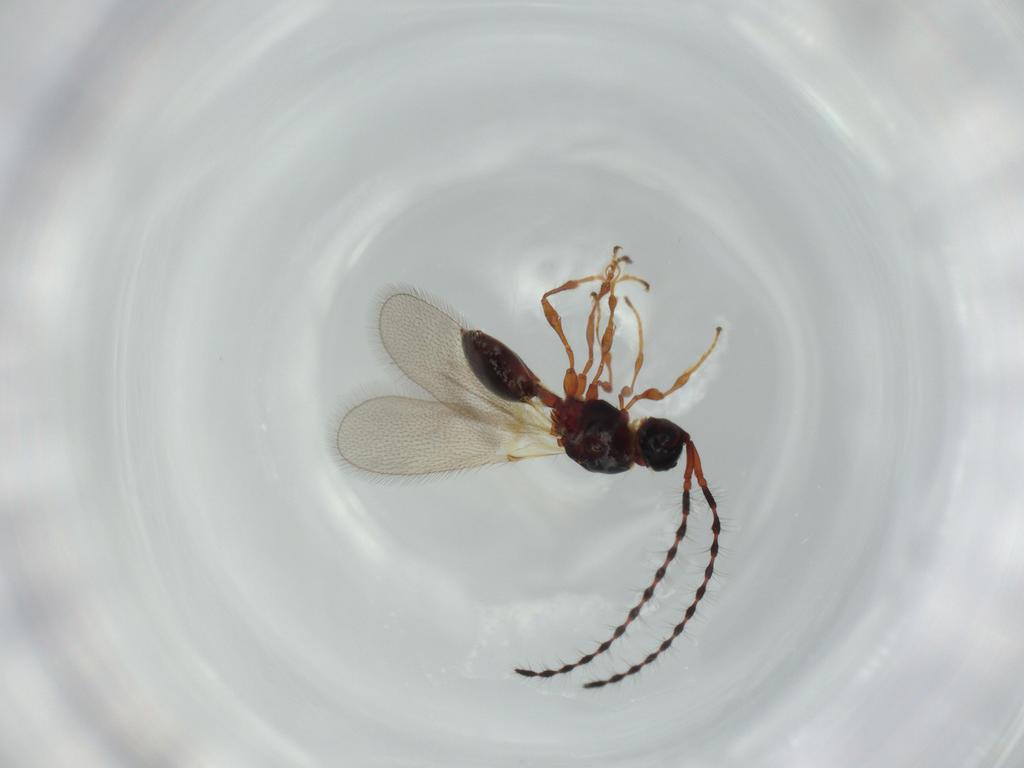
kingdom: Animalia
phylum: Arthropoda
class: Insecta
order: Hymenoptera
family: Diapriidae
